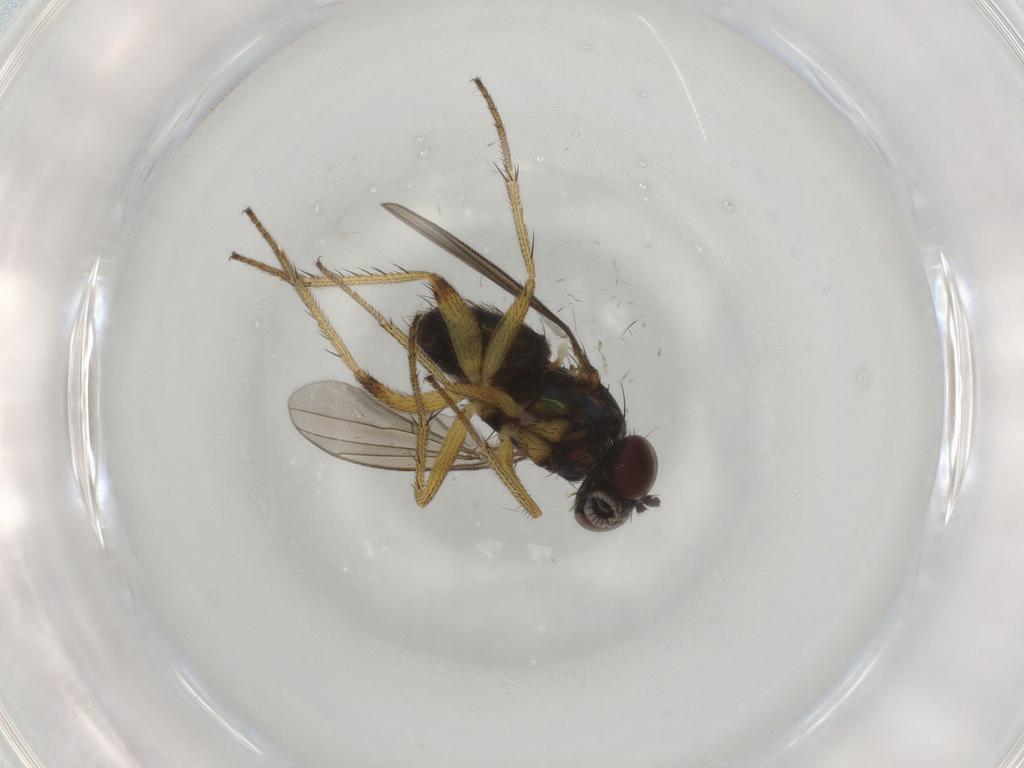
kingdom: Animalia
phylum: Arthropoda
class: Insecta
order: Diptera
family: Dolichopodidae
